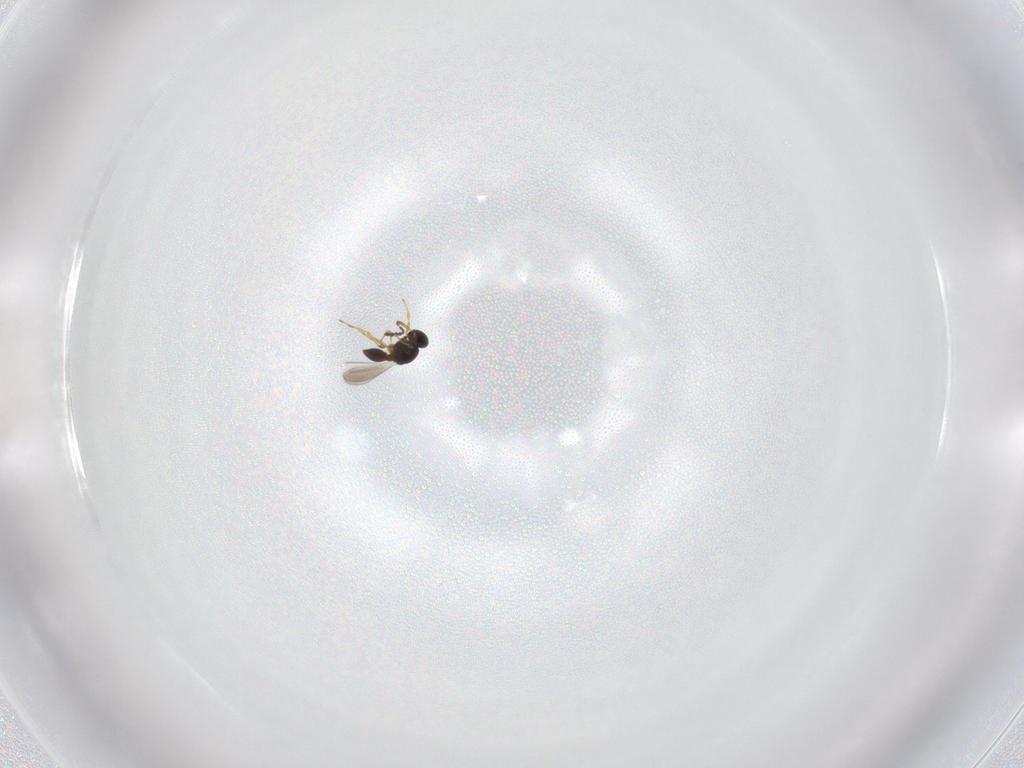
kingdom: Animalia
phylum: Arthropoda
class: Insecta
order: Hymenoptera
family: Platygastridae
